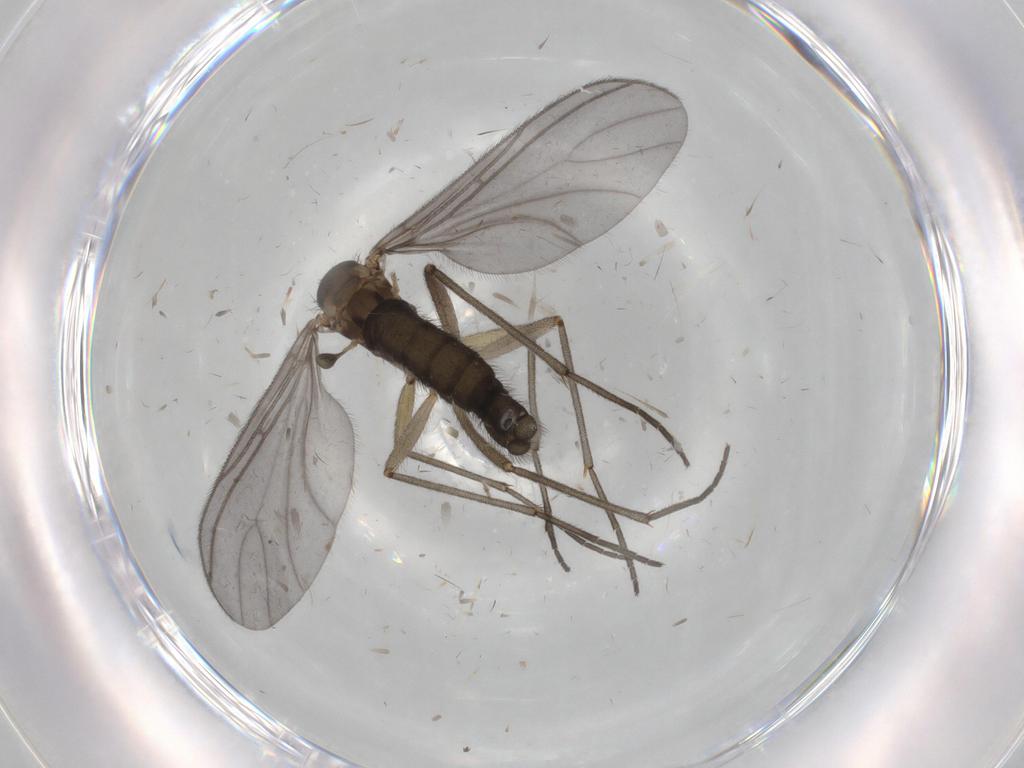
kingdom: Animalia
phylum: Arthropoda
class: Insecta
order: Diptera
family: Sciaridae
